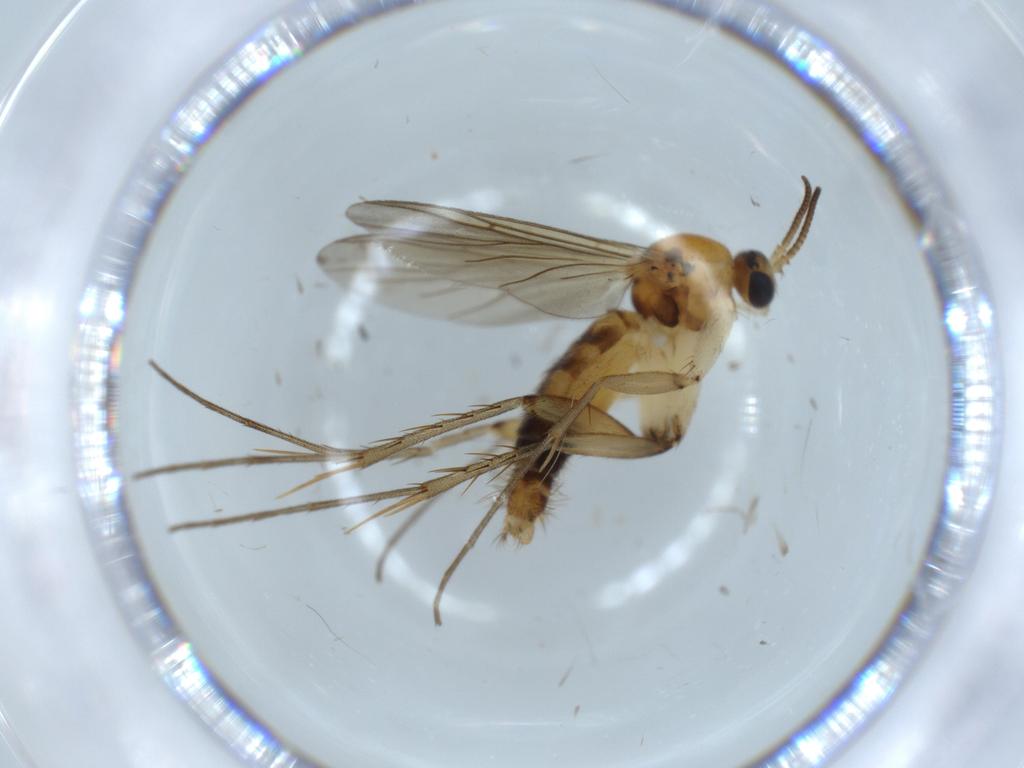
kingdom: Animalia
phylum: Arthropoda
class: Insecta
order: Diptera
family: Mycetophilidae
